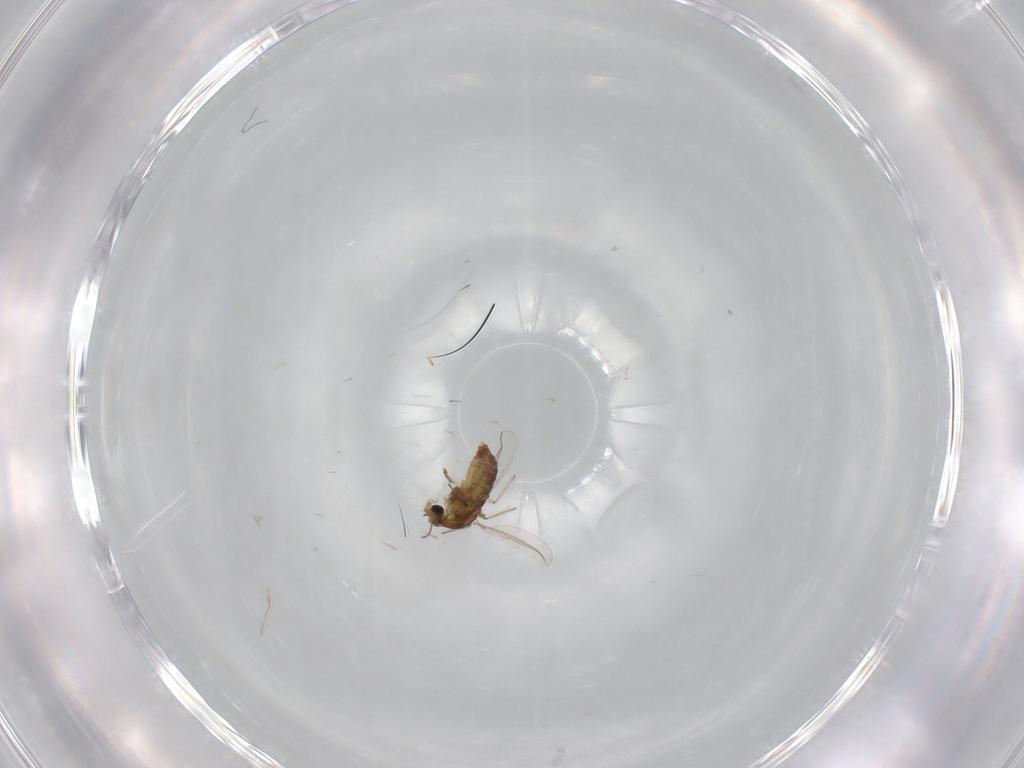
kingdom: Animalia
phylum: Arthropoda
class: Insecta
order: Diptera
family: Chironomidae
